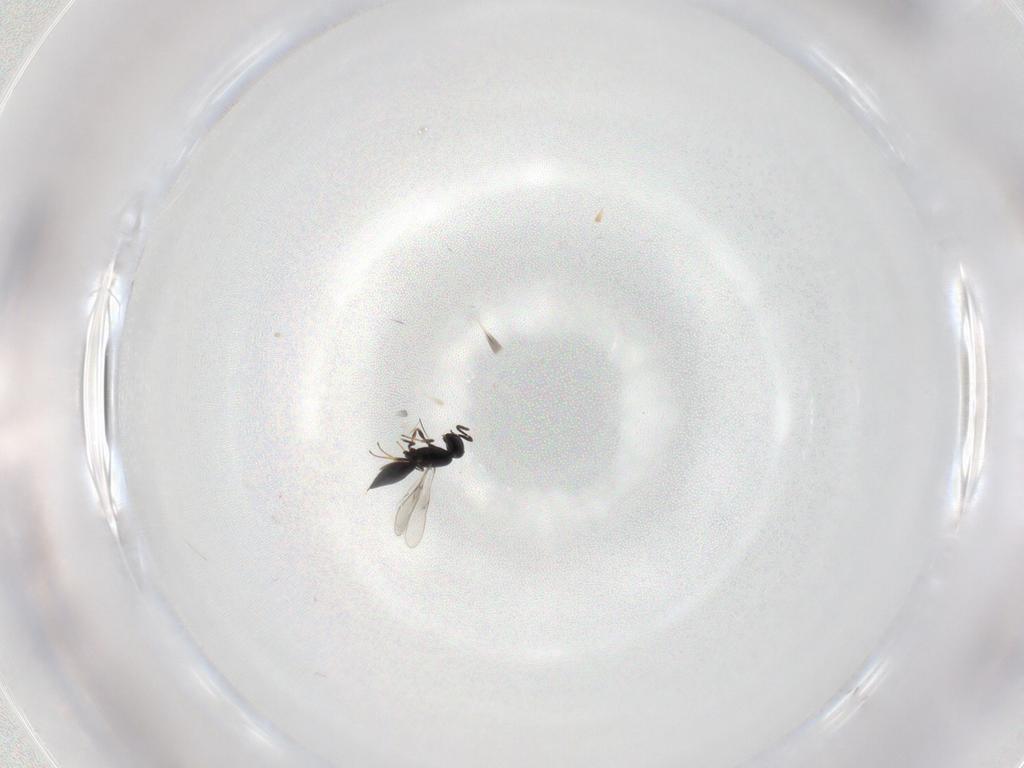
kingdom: Animalia
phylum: Arthropoda
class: Insecta
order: Hymenoptera
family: Scelionidae
